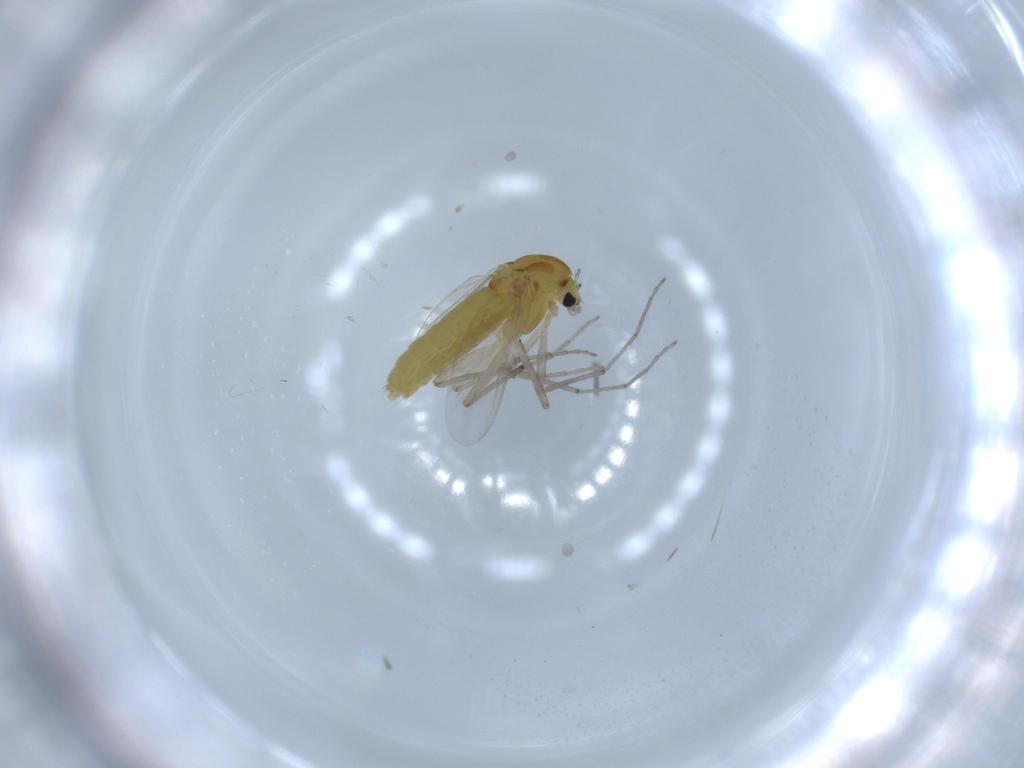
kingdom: Animalia
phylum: Arthropoda
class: Insecta
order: Diptera
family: Chironomidae
